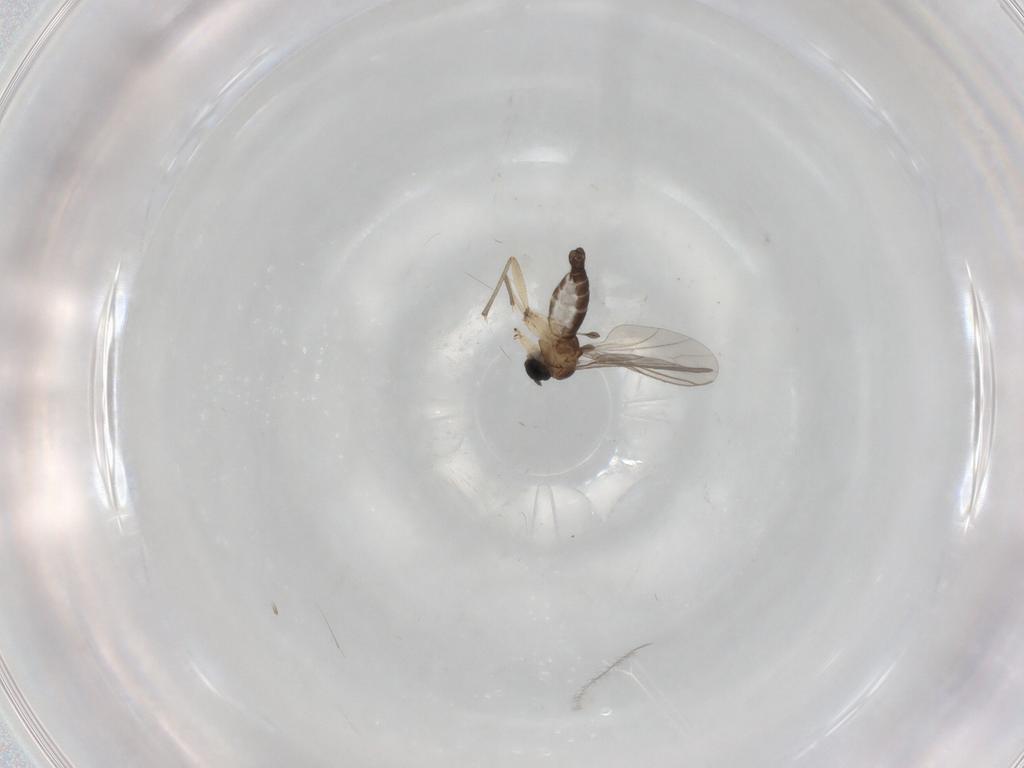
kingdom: Animalia
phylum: Arthropoda
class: Insecta
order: Diptera
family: Sciaridae
